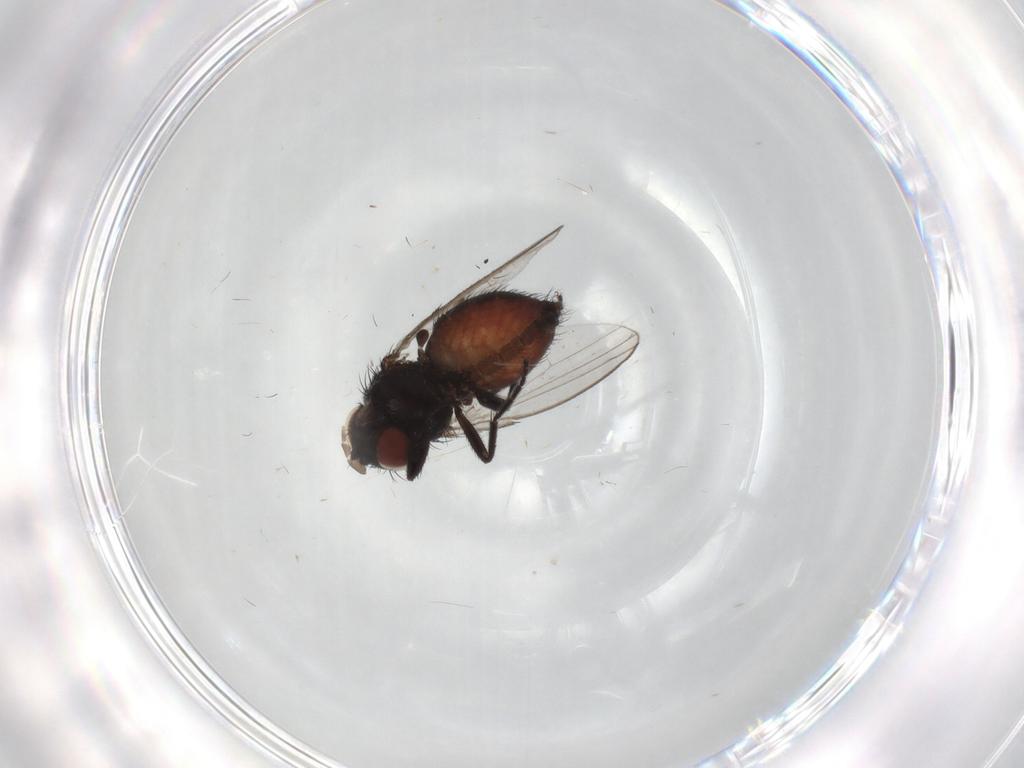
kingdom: Animalia
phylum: Arthropoda
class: Insecta
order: Diptera
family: Milichiidae
